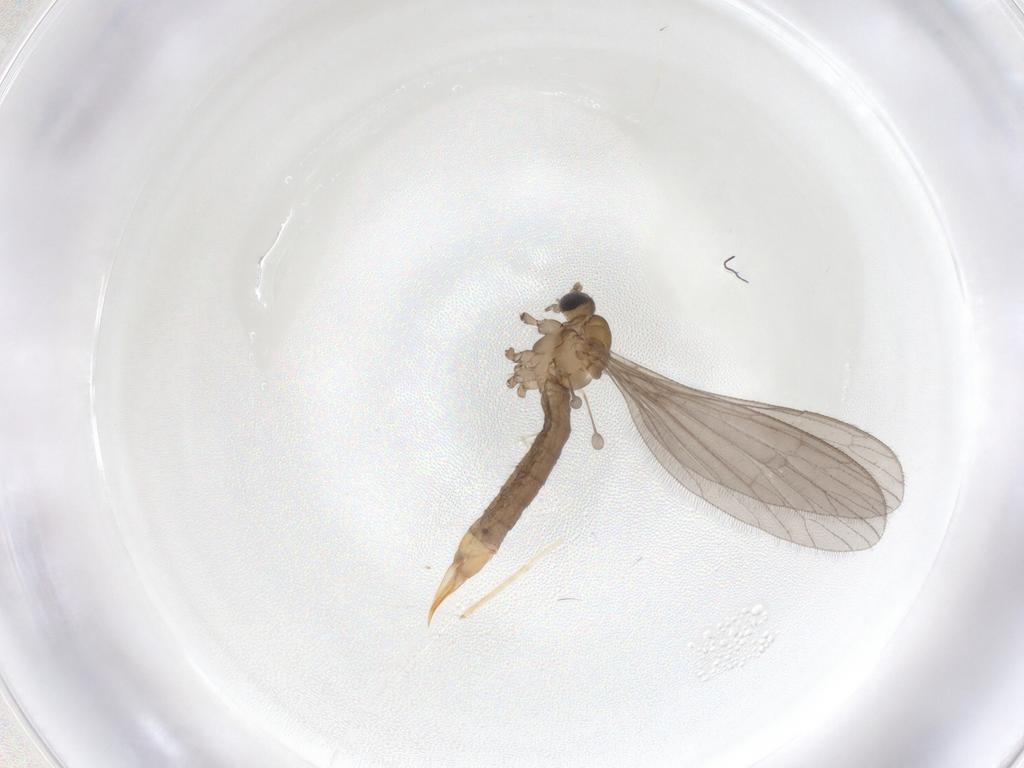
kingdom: Animalia
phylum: Arthropoda
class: Insecta
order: Diptera
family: Limoniidae
